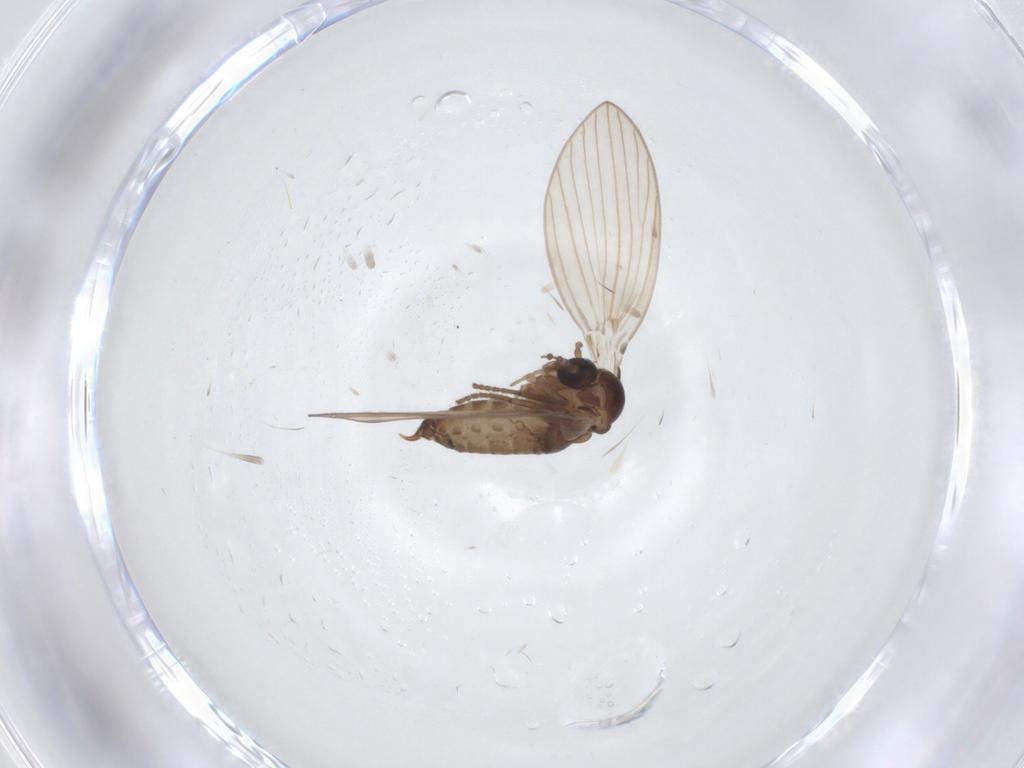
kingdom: Animalia
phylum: Arthropoda
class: Insecta
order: Diptera
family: Psychodidae
